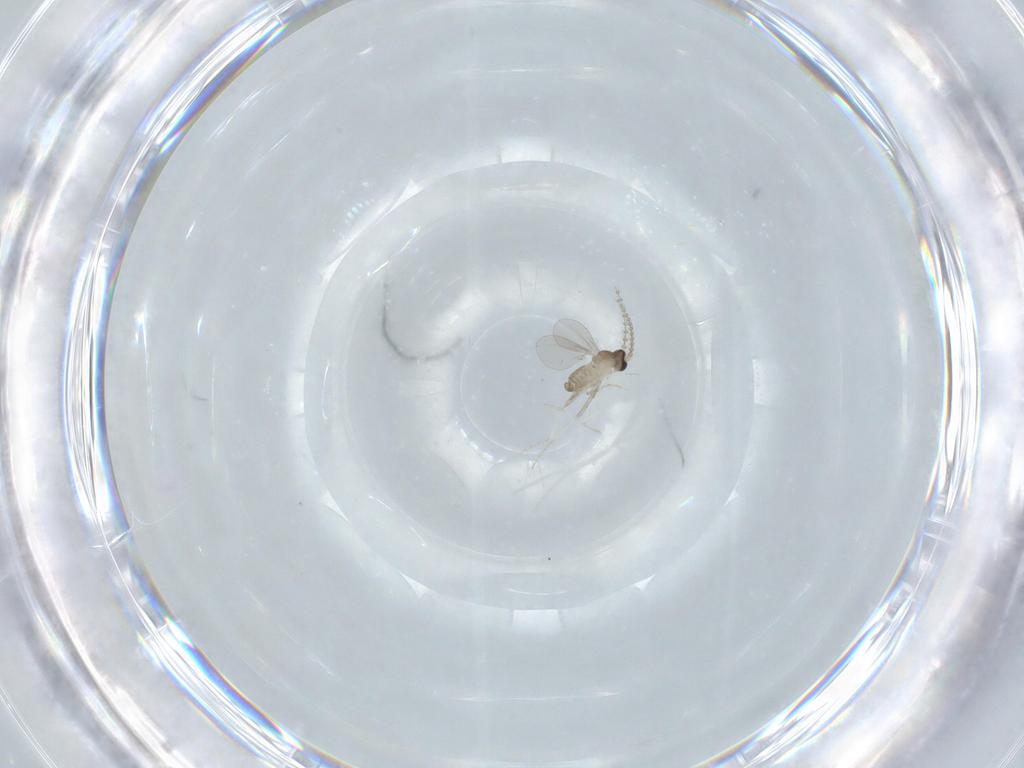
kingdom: Animalia
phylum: Arthropoda
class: Insecta
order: Diptera
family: Cecidomyiidae
